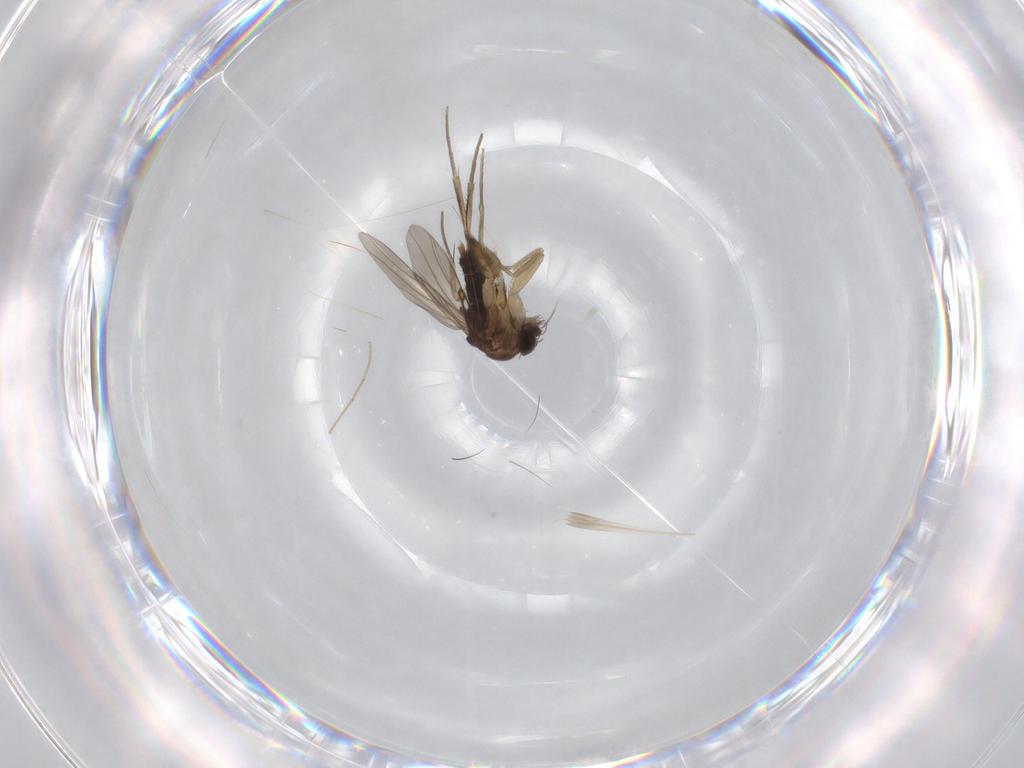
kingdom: Animalia
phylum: Arthropoda
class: Insecta
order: Diptera
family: Phoridae
